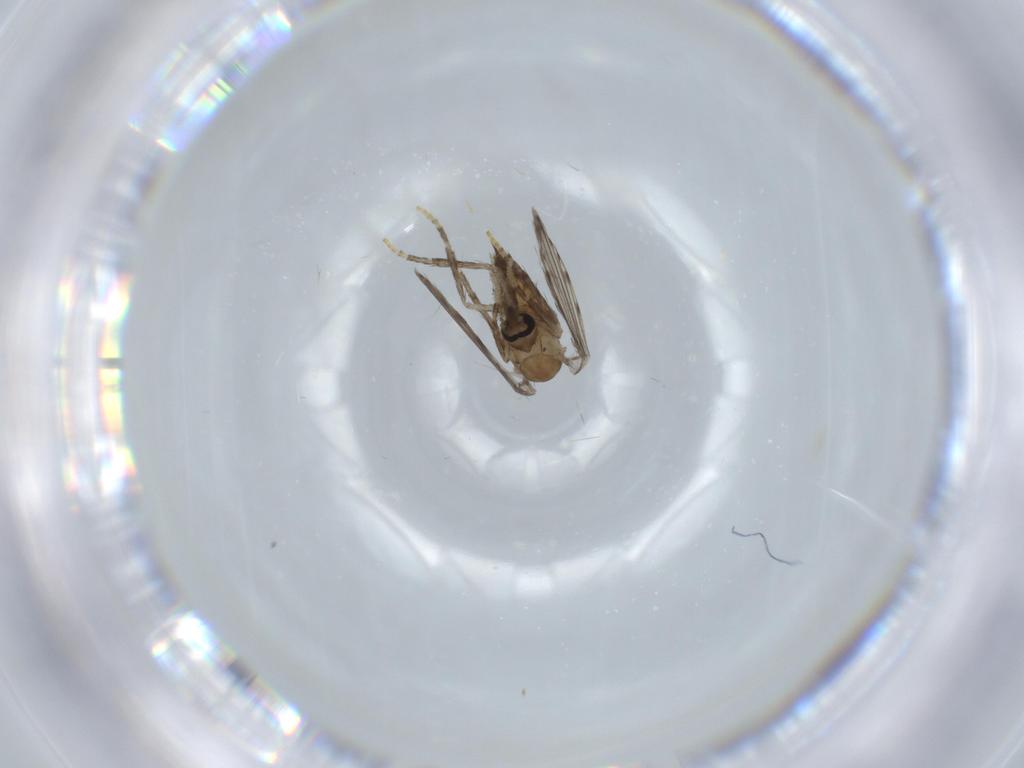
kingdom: Animalia
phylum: Arthropoda
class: Insecta
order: Diptera
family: Psychodidae
